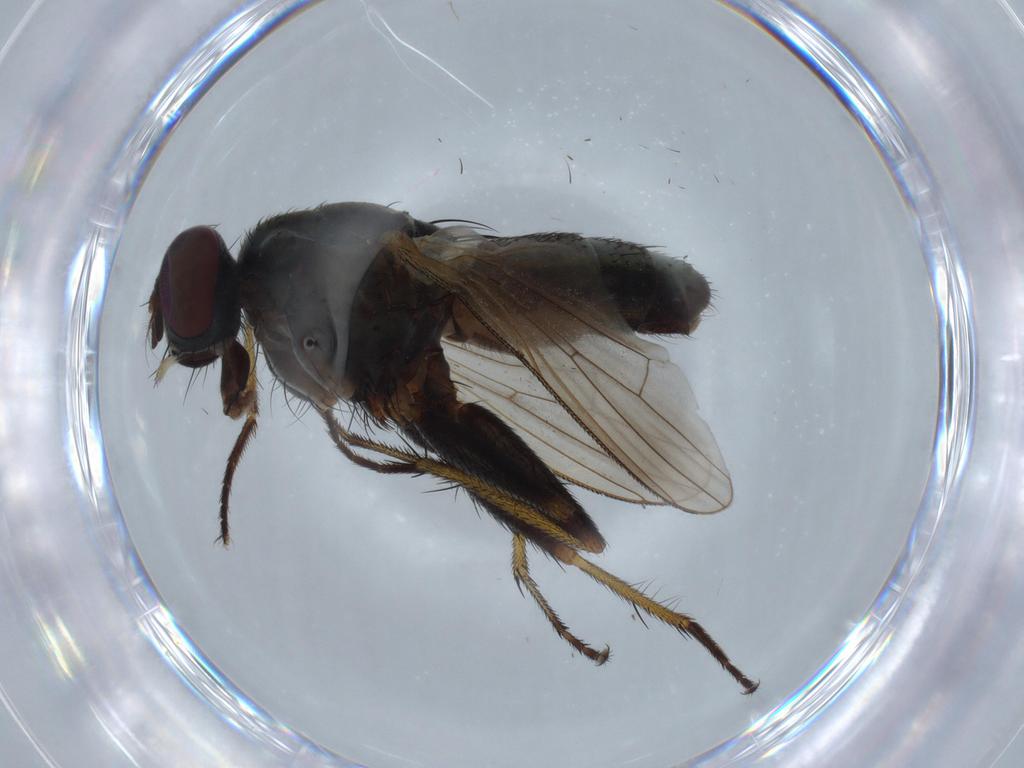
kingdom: Animalia
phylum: Arthropoda
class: Insecta
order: Diptera
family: Muscidae
